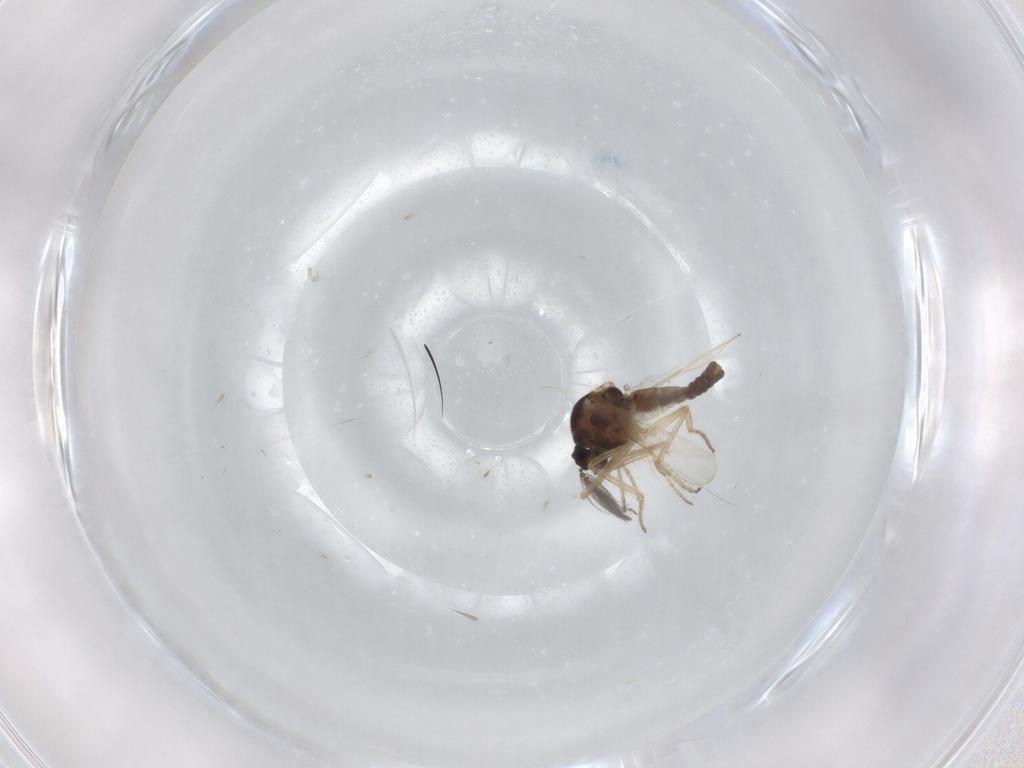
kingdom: Animalia
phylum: Arthropoda
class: Insecta
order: Diptera
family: Ceratopogonidae
